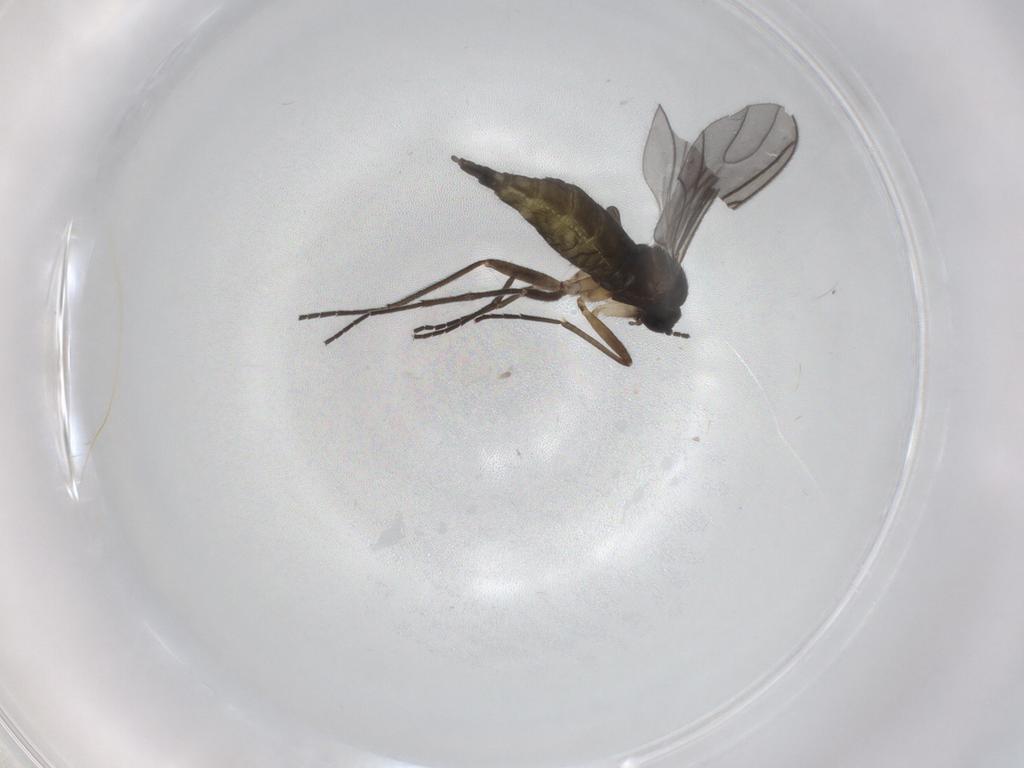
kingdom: Animalia
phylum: Arthropoda
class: Insecta
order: Diptera
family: Sciaridae
